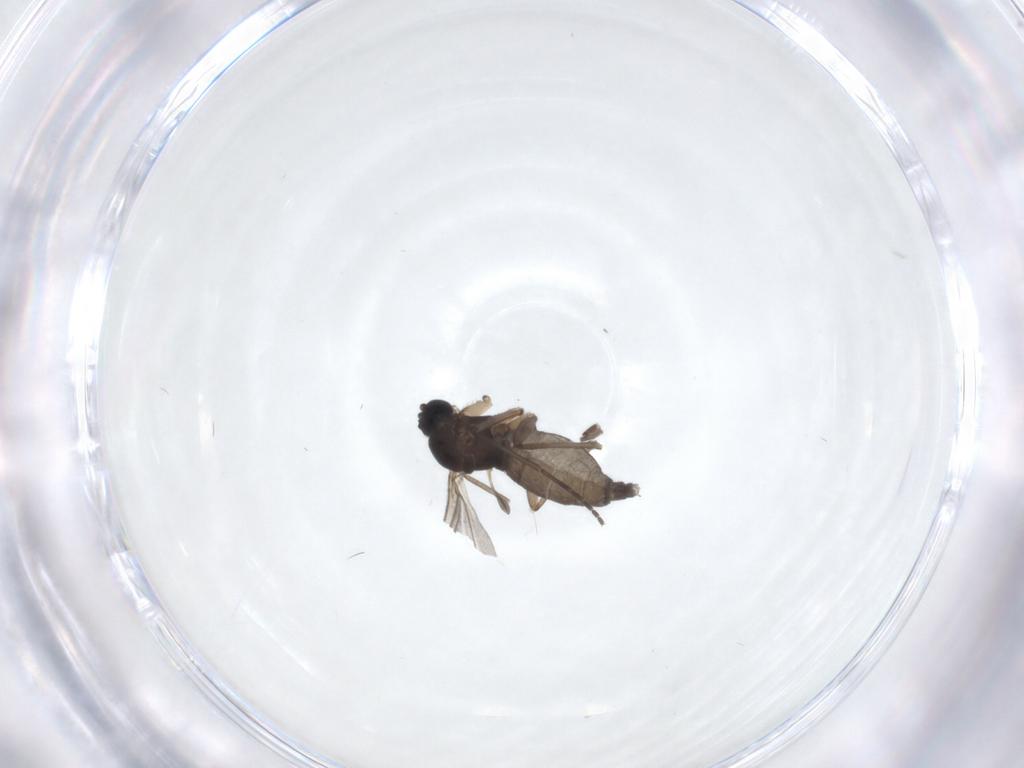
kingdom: Animalia
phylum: Arthropoda
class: Insecta
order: Diptera
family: Sciaridae
